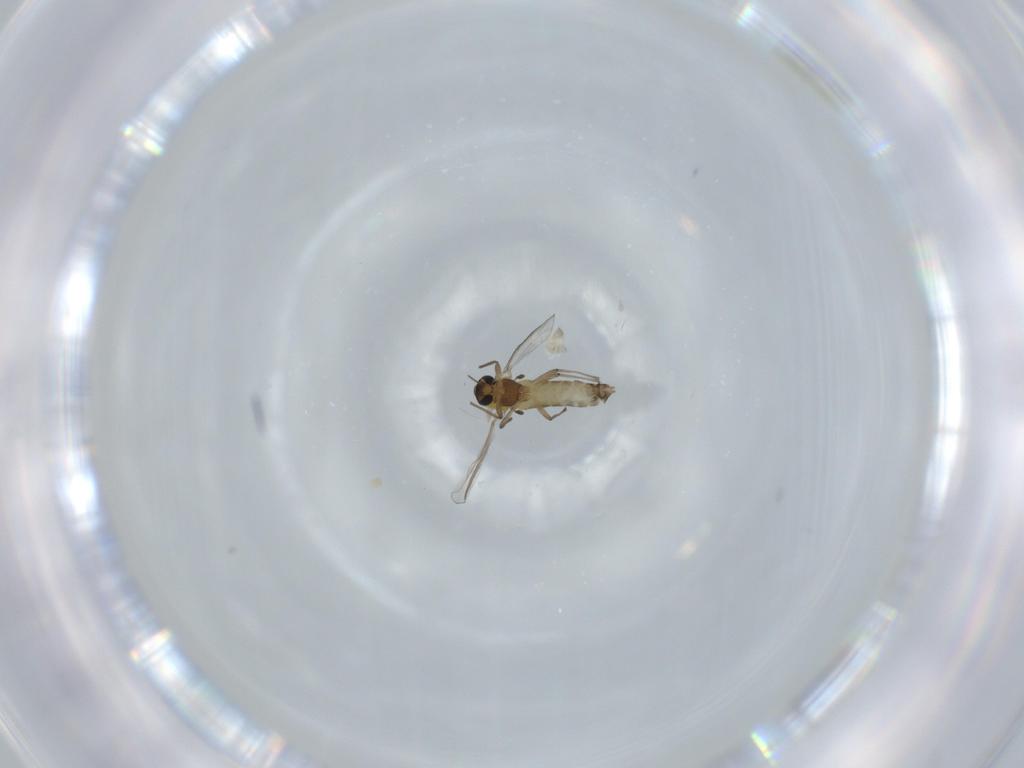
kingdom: Animalia
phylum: Arthropoda
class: Insecta
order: Diptera
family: Chironomidae
